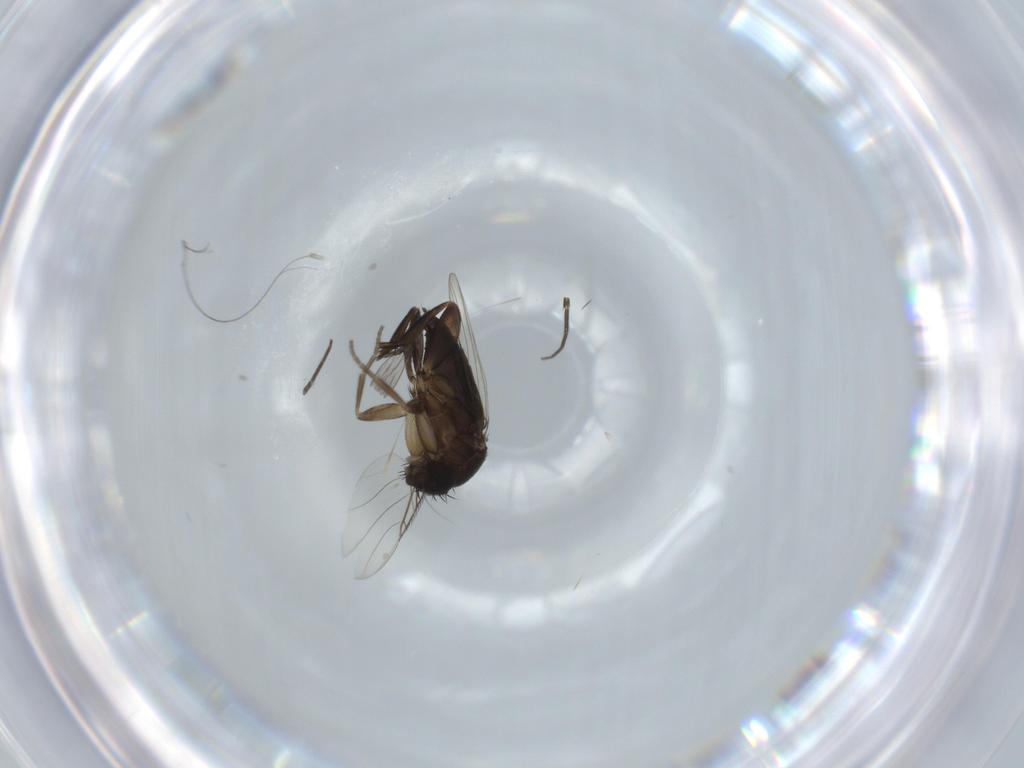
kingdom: Animalia
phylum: Arthropoda
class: Insecta
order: Diptera
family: Phoridae
